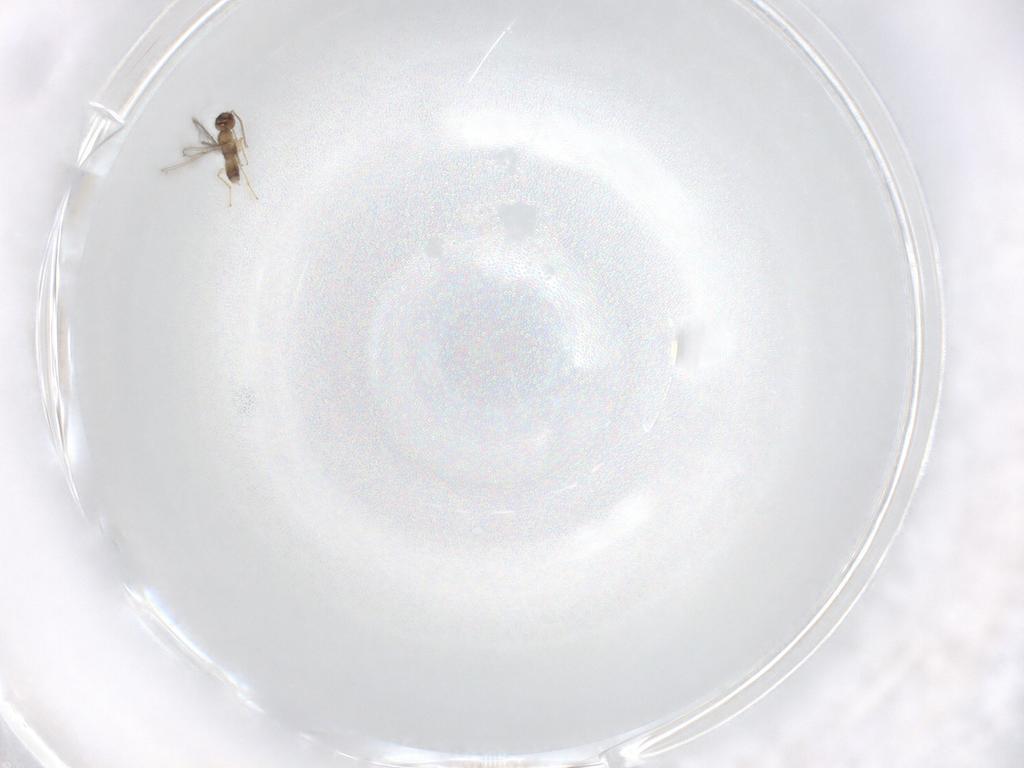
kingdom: Animalia
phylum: Arthropoda
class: Insecta
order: Hymenoptera
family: Mymaridae
